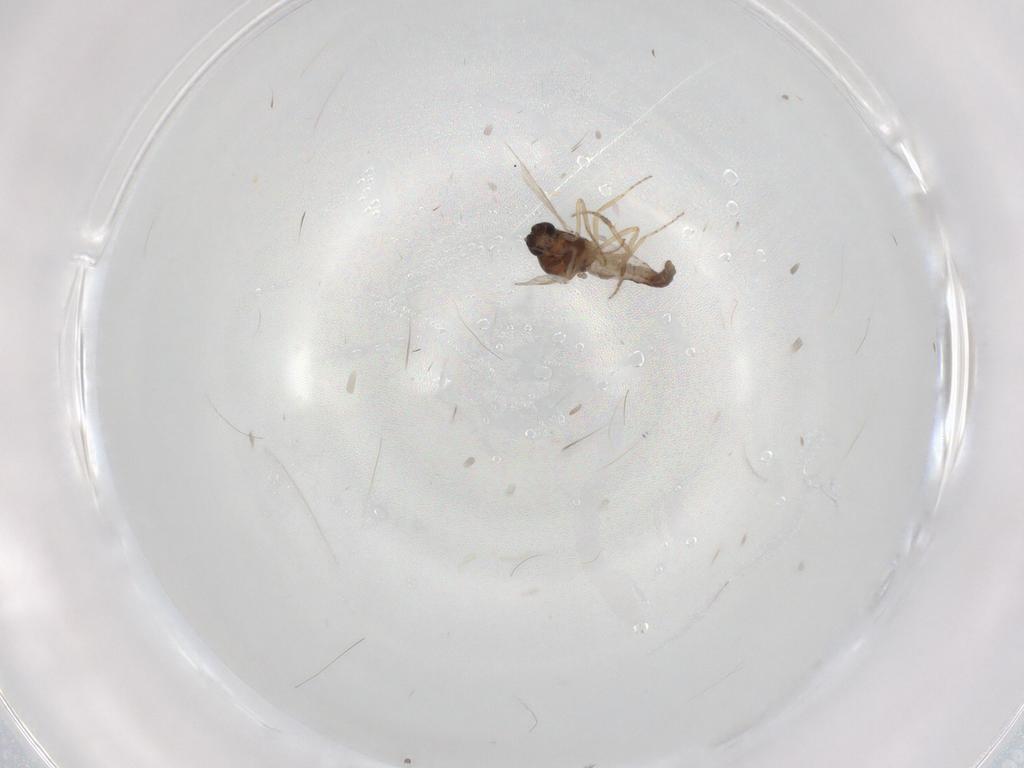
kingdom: Animalia
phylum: Arthropoda
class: Insecta
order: Diptera
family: Ceratopogonidae
